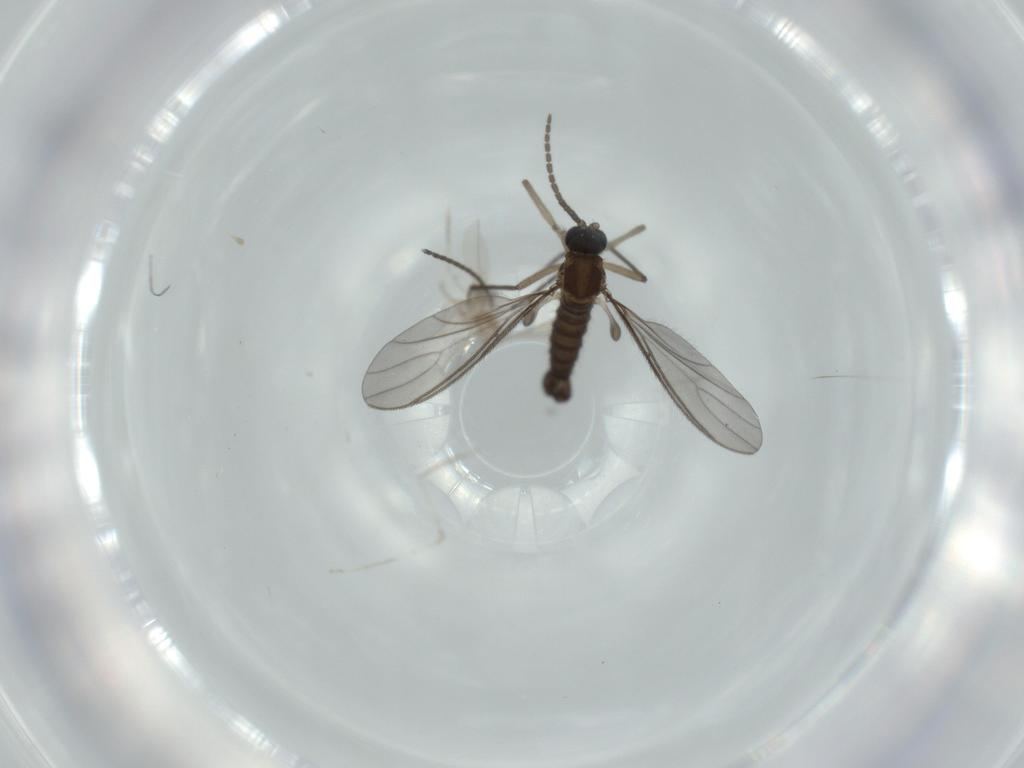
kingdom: Animalia
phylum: Arthropoda
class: Insecta
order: Diptera
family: Sciaridae
